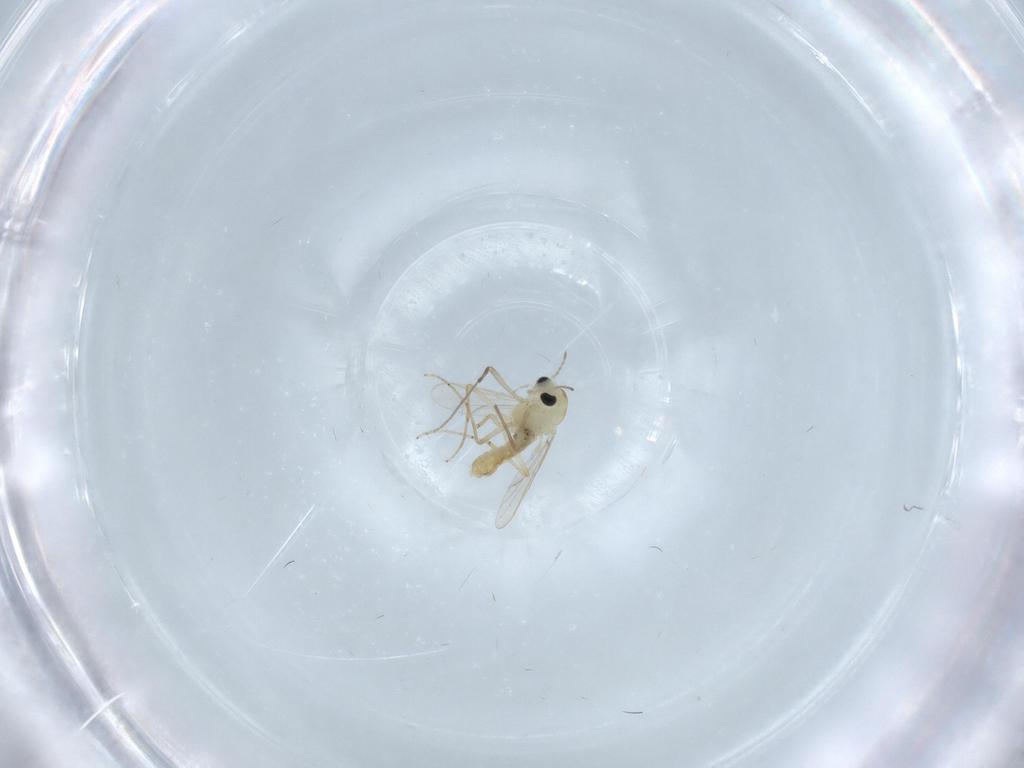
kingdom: Animalia
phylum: Arthropoda
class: Insecta
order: Diptera
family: Chironomidae
